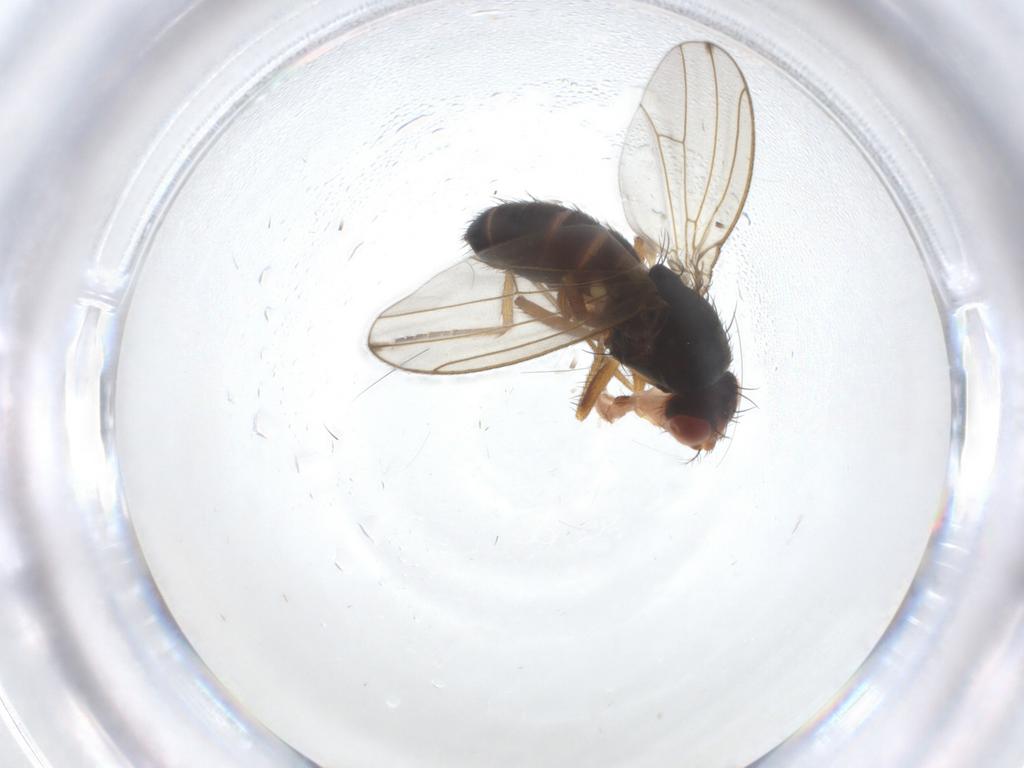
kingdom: Animalia
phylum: Arthropoda
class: Insecta
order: Diptera
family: Drosophilidae
